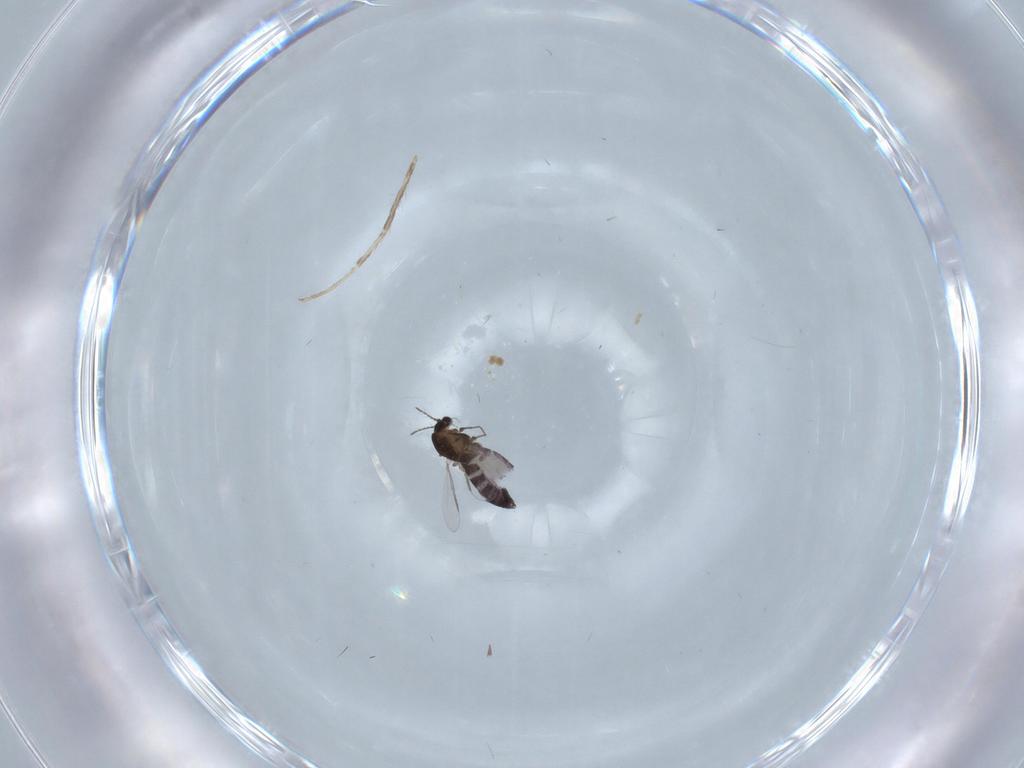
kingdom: Animalia
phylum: Arthropoda
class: Insecta
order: Diptera
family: Chironomidae
